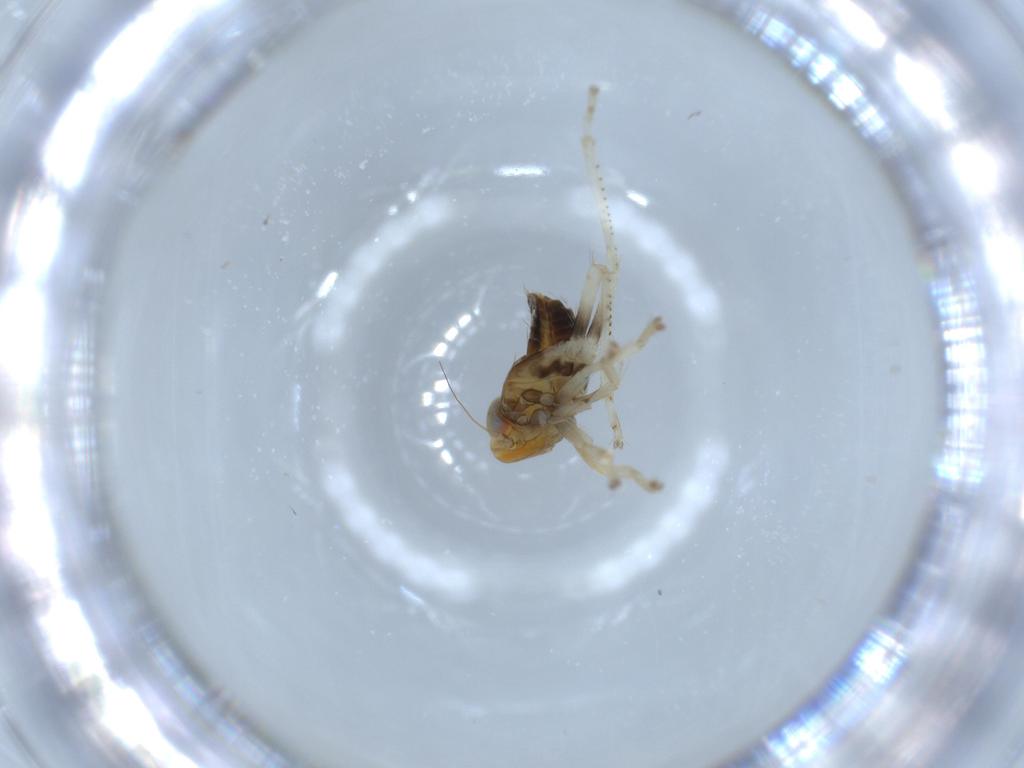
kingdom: Animalia
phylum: Arthropoda
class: Insecta
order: Hemiptera
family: Cicadellidae
